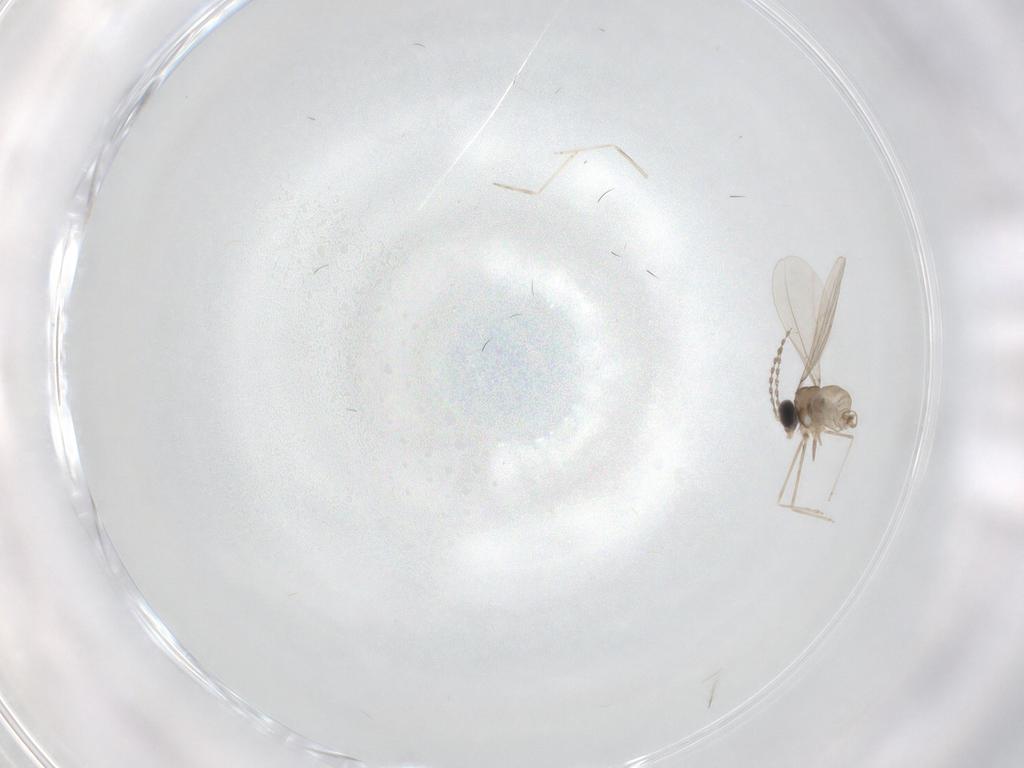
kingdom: Animalia
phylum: Arthropoda
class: Insecta
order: Diptera
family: Cecidomyiidae
